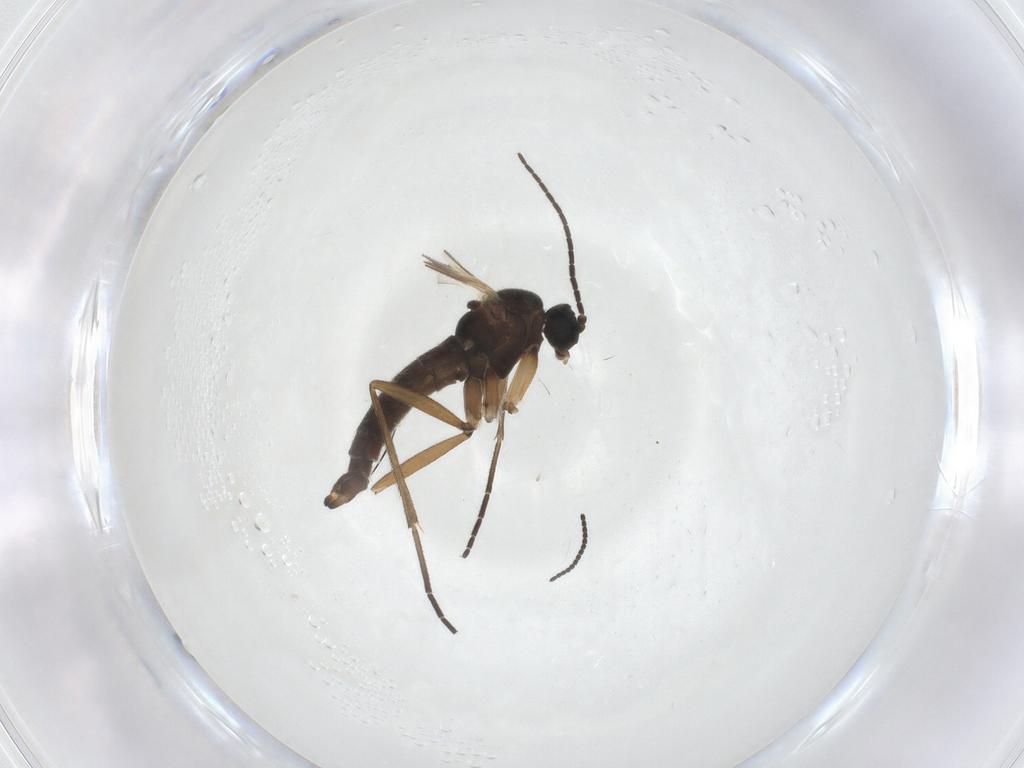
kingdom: Animalia
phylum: Arthropoda
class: Insecta
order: Diptera
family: Sciaridae
